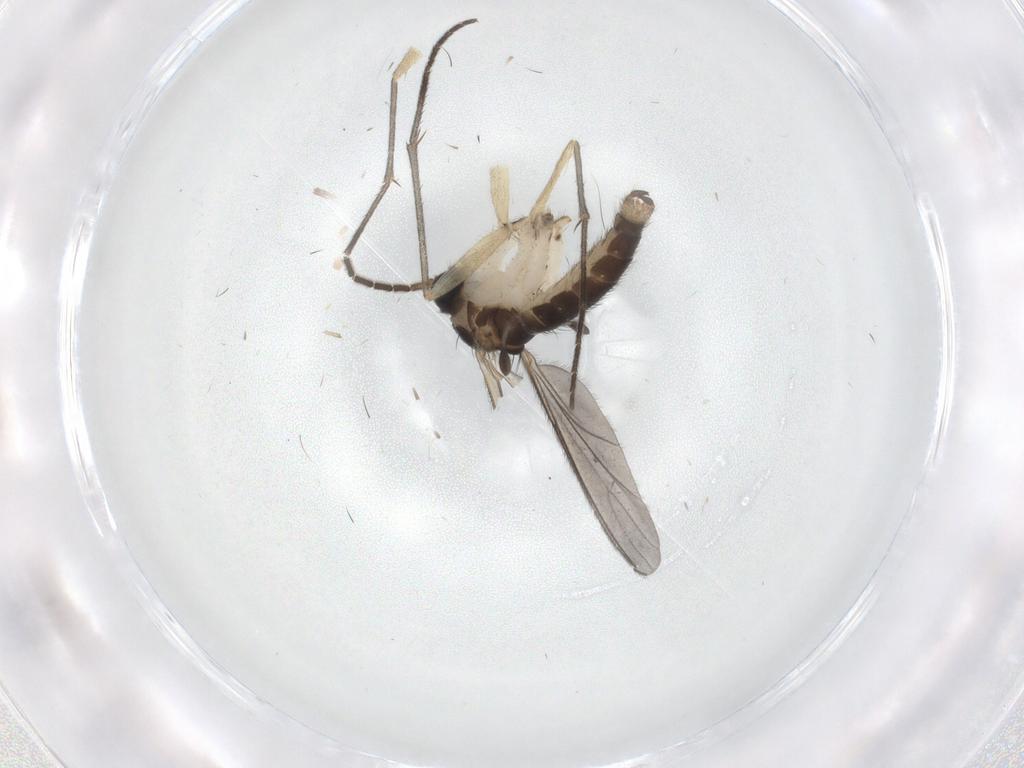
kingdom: Animalia
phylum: Arthropoda
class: Insecta
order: Diptera
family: Sciaridae
